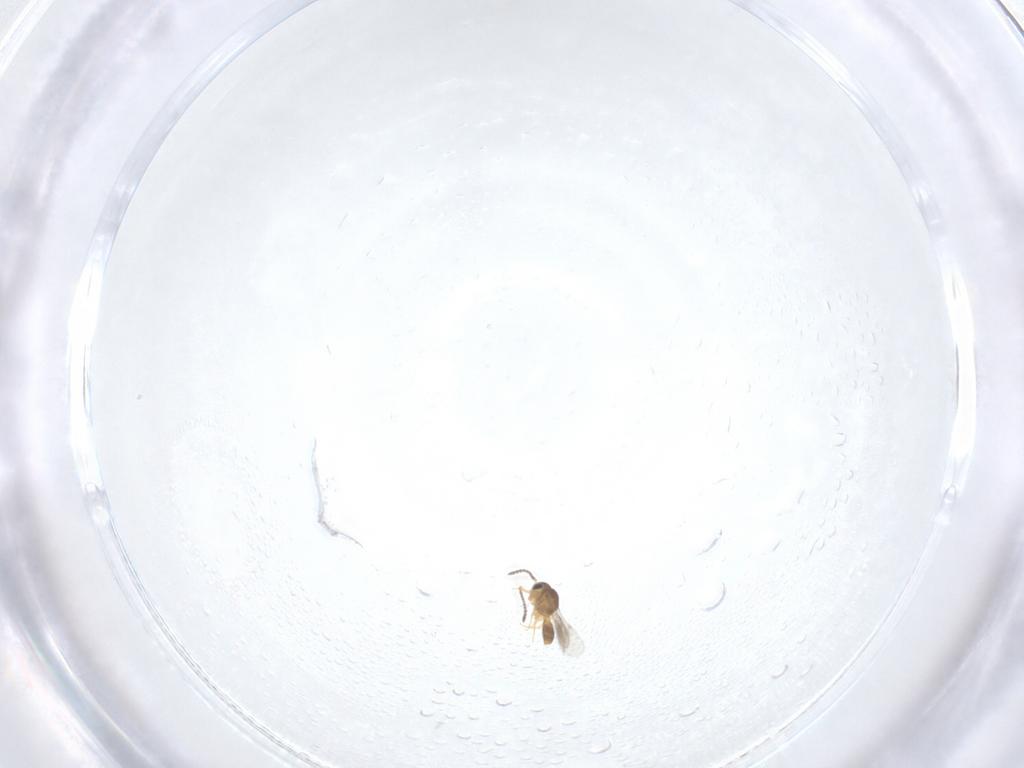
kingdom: Animalia
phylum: Arthropoda
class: Insecta
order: Hymenoptera
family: Scelionidae
